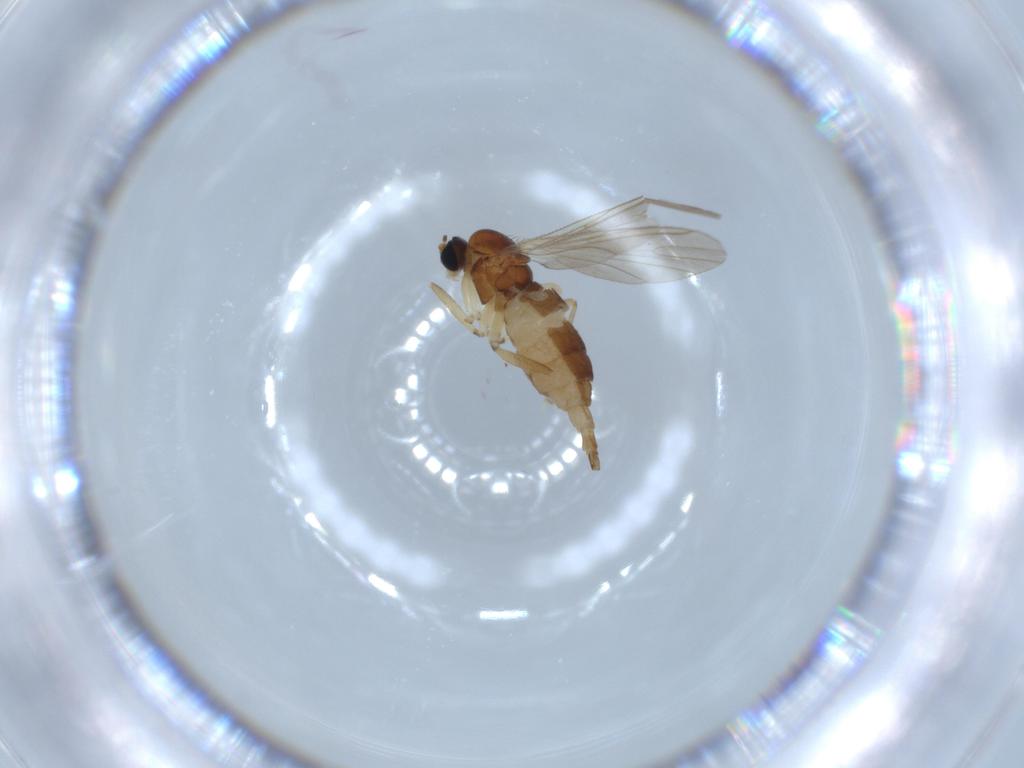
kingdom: Animalia
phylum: Arthropoda
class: Insecta
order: Diptera
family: Sciaridae
